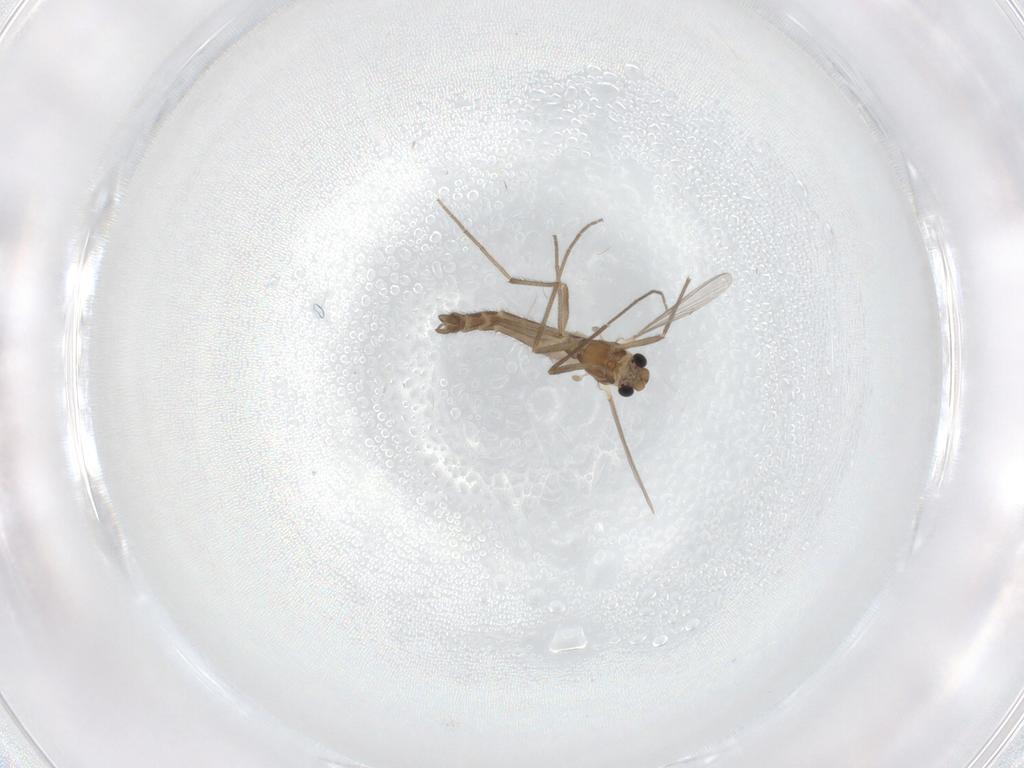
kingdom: Animalia
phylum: Arthropoda
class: Insecta
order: Diptera
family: Chironomidae
